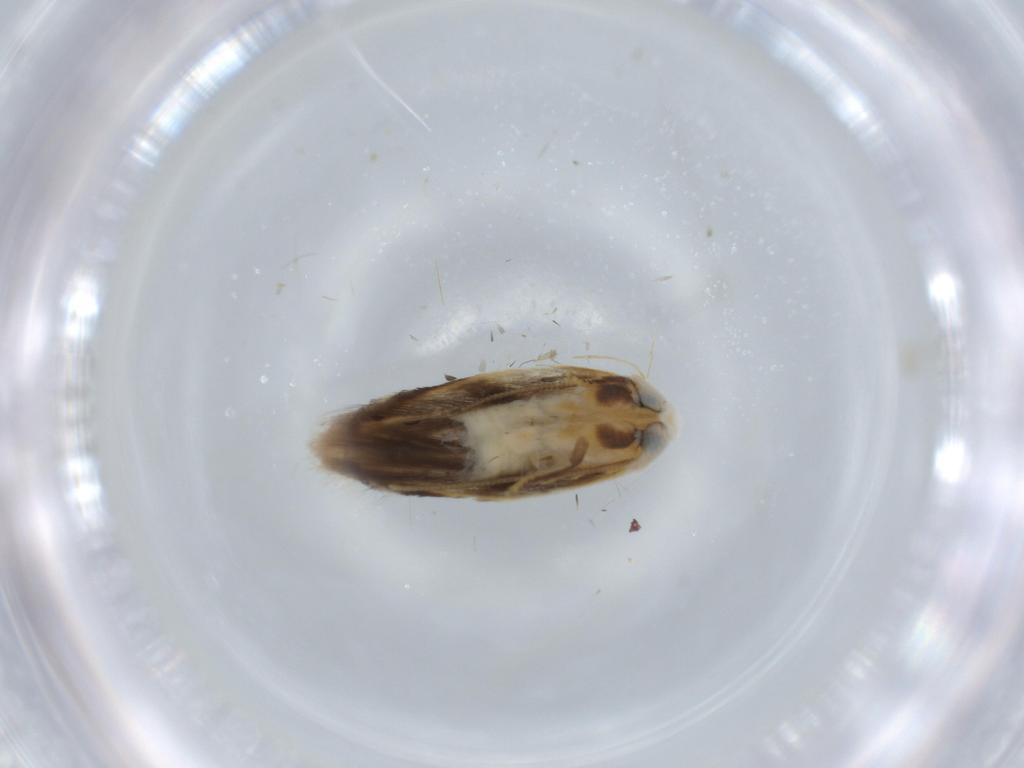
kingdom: Animalia
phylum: Arthropoda
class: Insecta
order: Lepidoptera
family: Opostegidae
